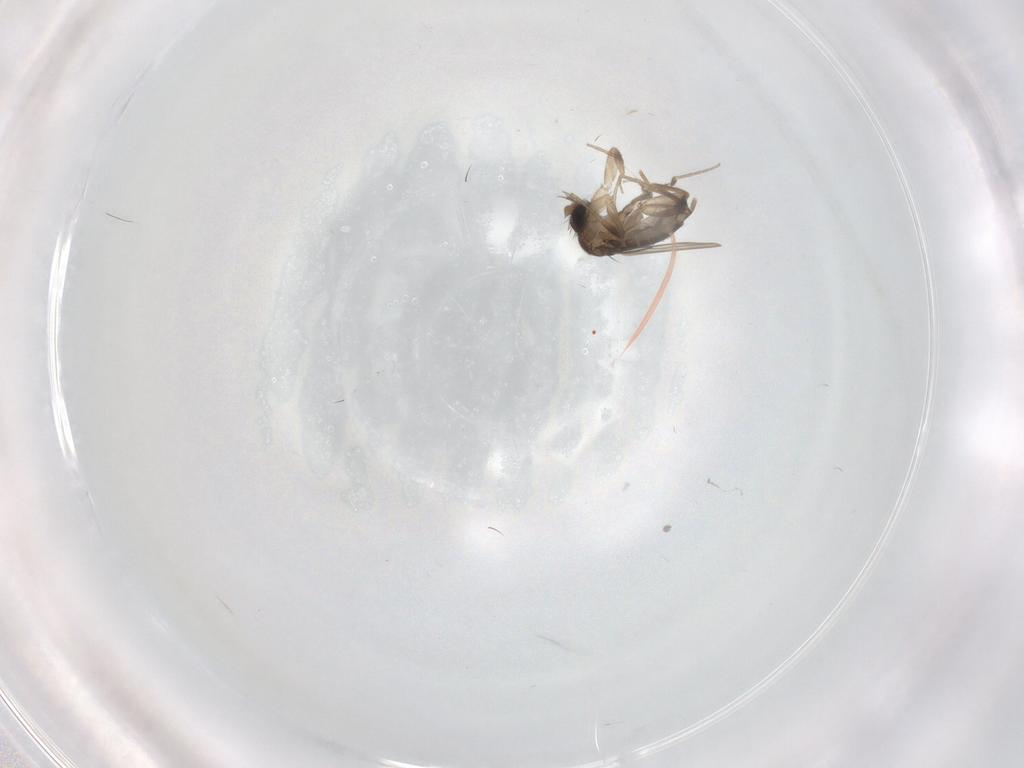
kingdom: Animalia
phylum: Arthropoda
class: Insecta
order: Diptera
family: Phoridae
